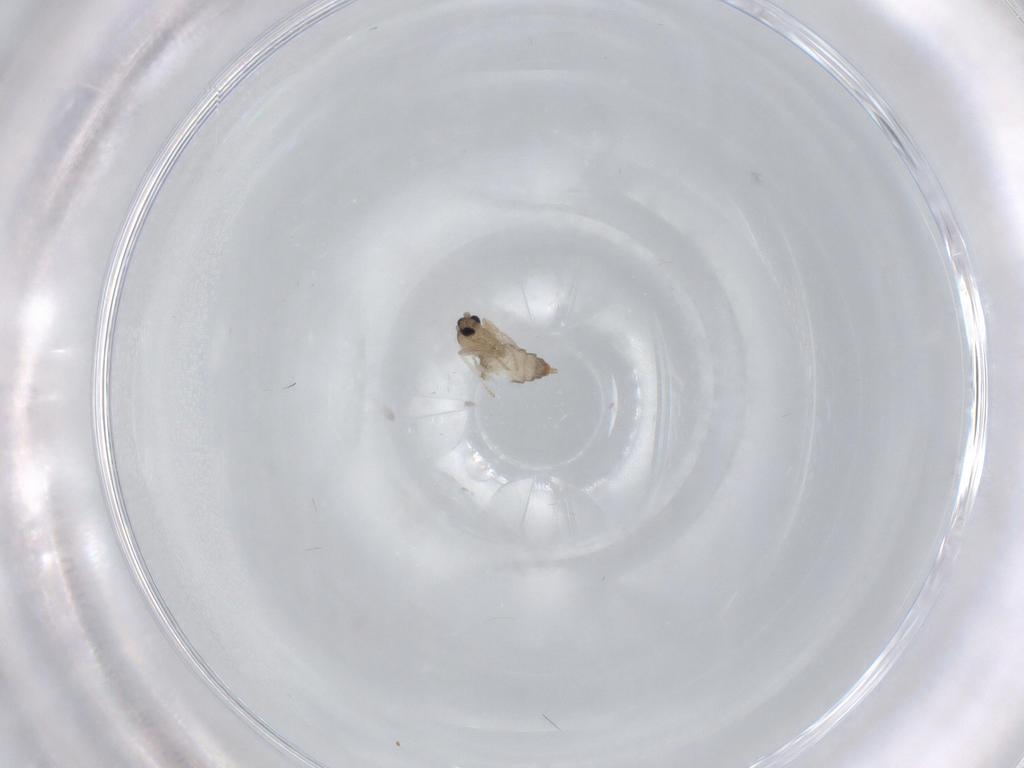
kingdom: Animalia
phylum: Arthropoda
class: Insecta
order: Diptera
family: Cecidomyiidae
